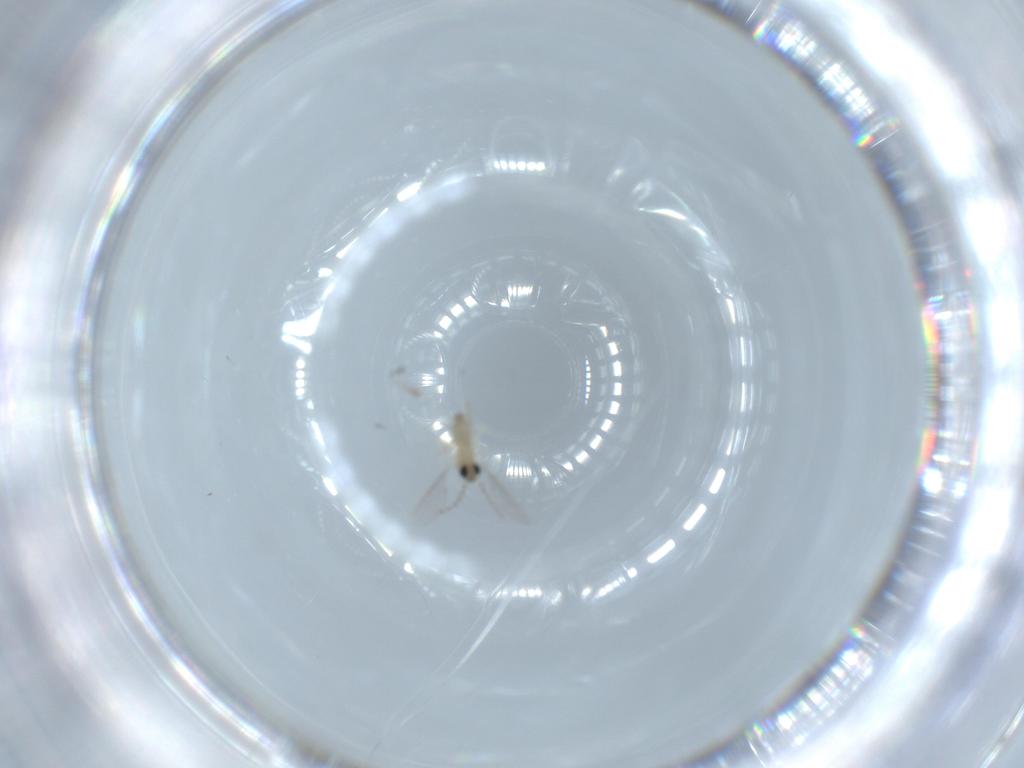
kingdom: Animalia
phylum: Arthropoda
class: Insecta
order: Diptera
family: Cecidomyiidae
